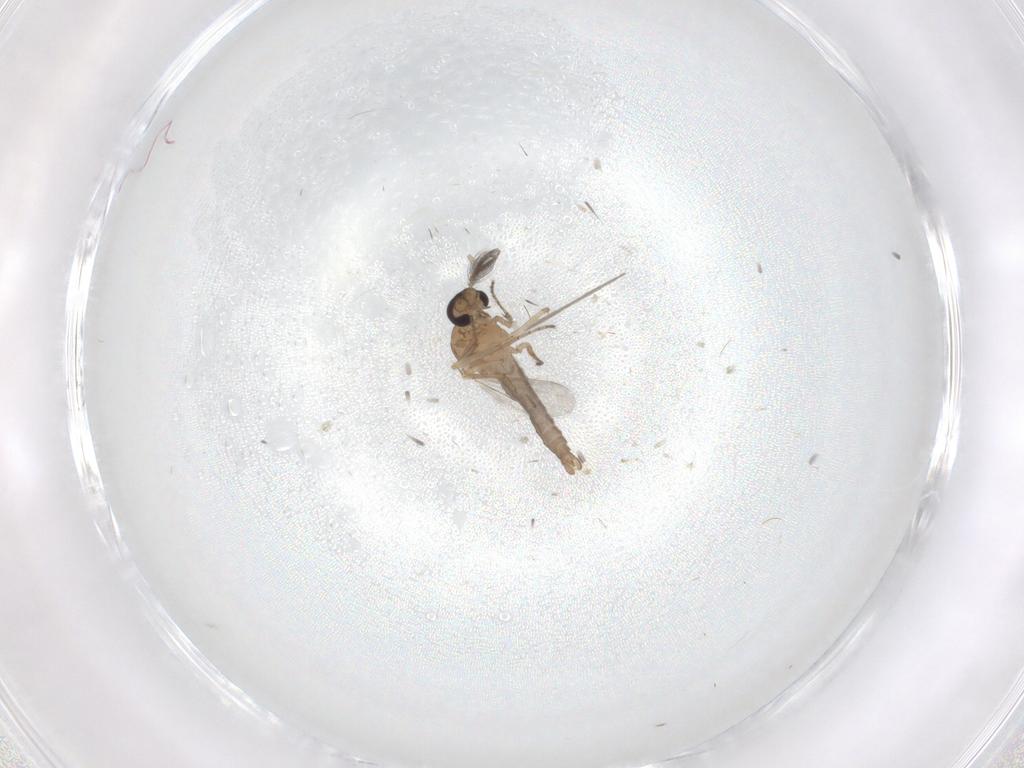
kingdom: Animalia
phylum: Arthropoda
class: Insecta
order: Diptera
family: Ceratopogonidae
